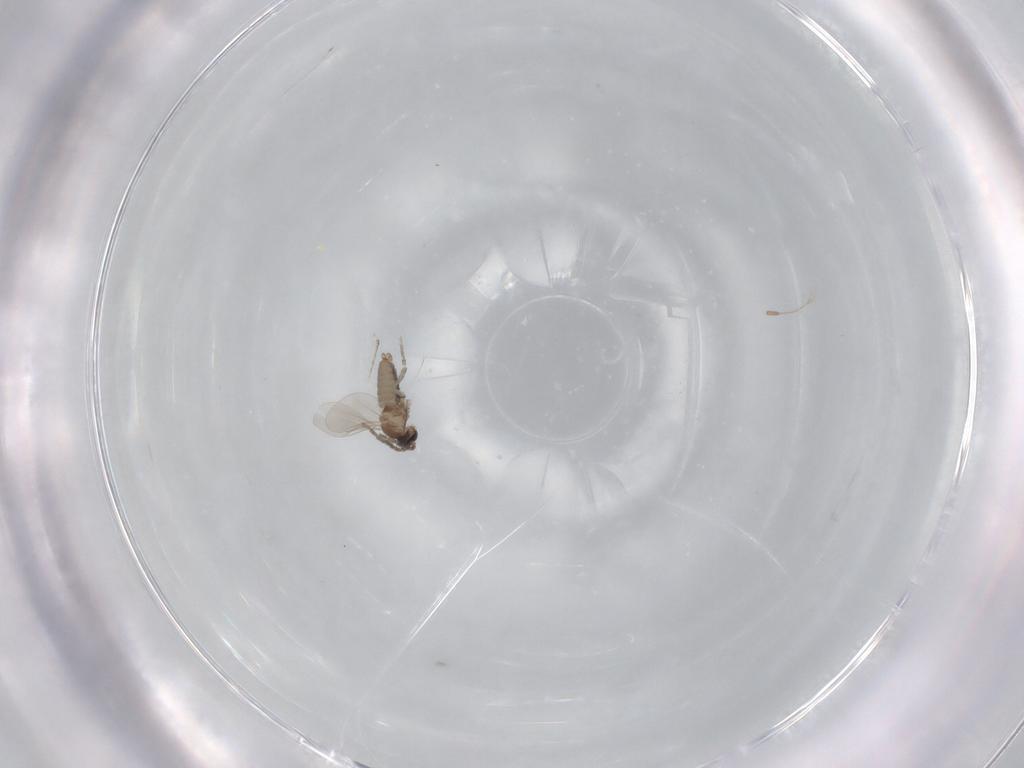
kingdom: Animalia
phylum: Arthropoda
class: Insecta
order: Diptera
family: Cecidomyiidae
